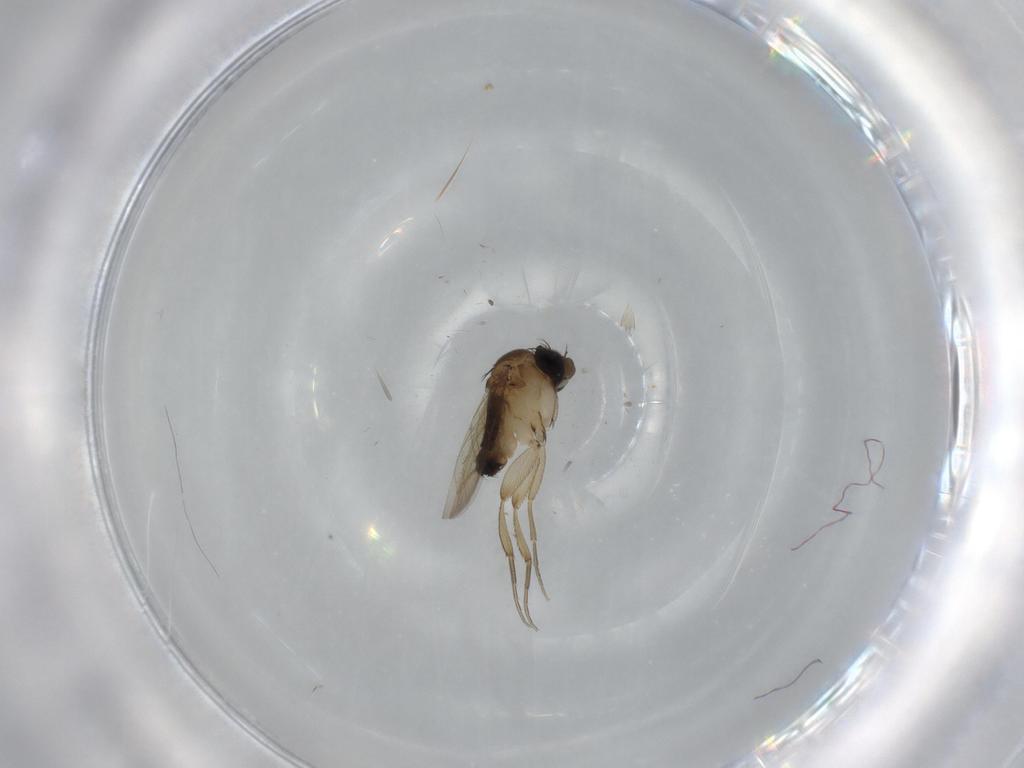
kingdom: Animalia
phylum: Arthropoda
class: Insecta
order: Diptera
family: Phoridae
